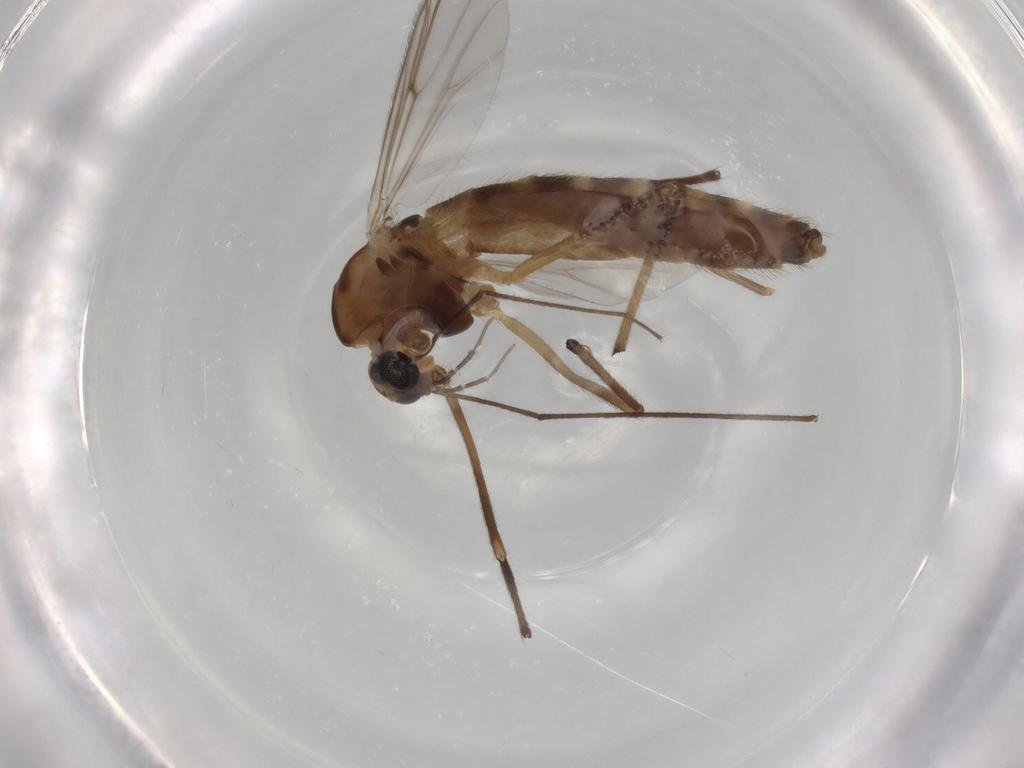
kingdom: Animalia
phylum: Arthropoda
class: Insecta
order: Diptera
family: Chironomidae
